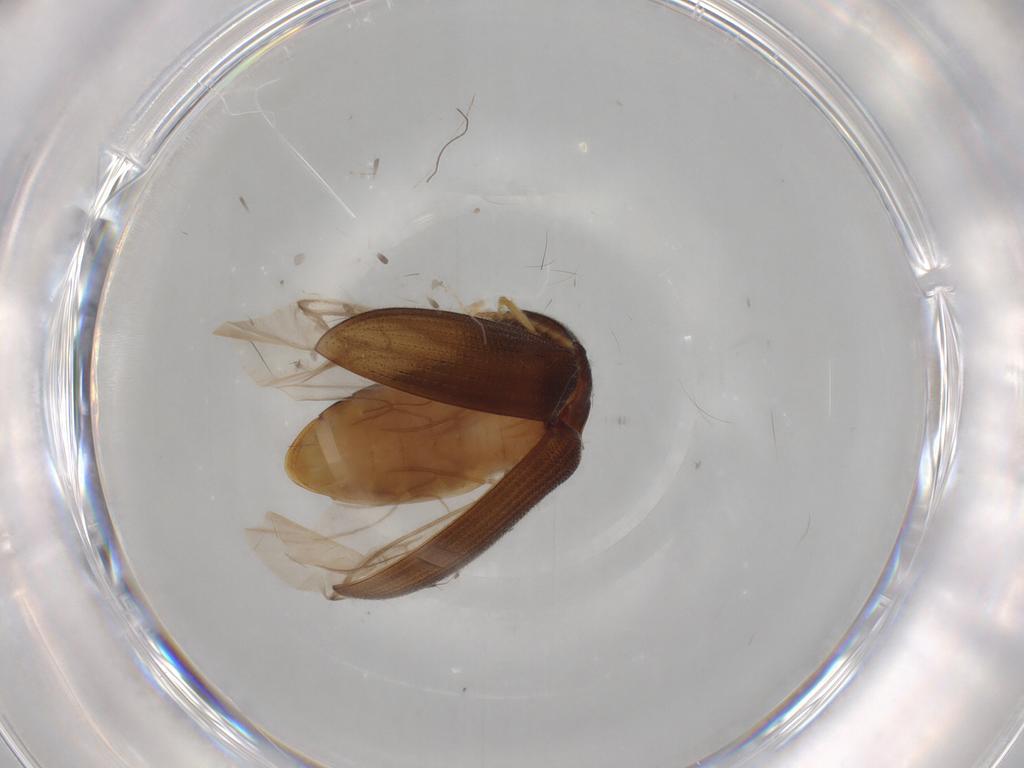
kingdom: Animalia
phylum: Arthropoda
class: Insecta
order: Coleoptera
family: Elateridae
